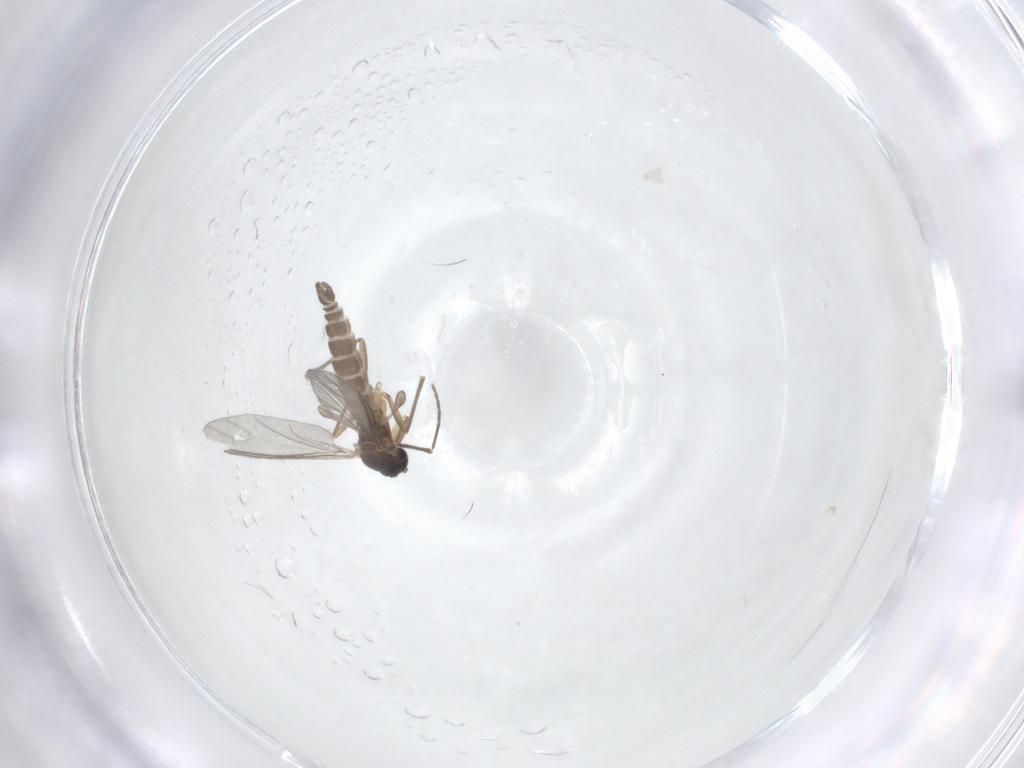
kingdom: Animalia
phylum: Arthropoda
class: Insecta
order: Diptera
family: Sciaridae
